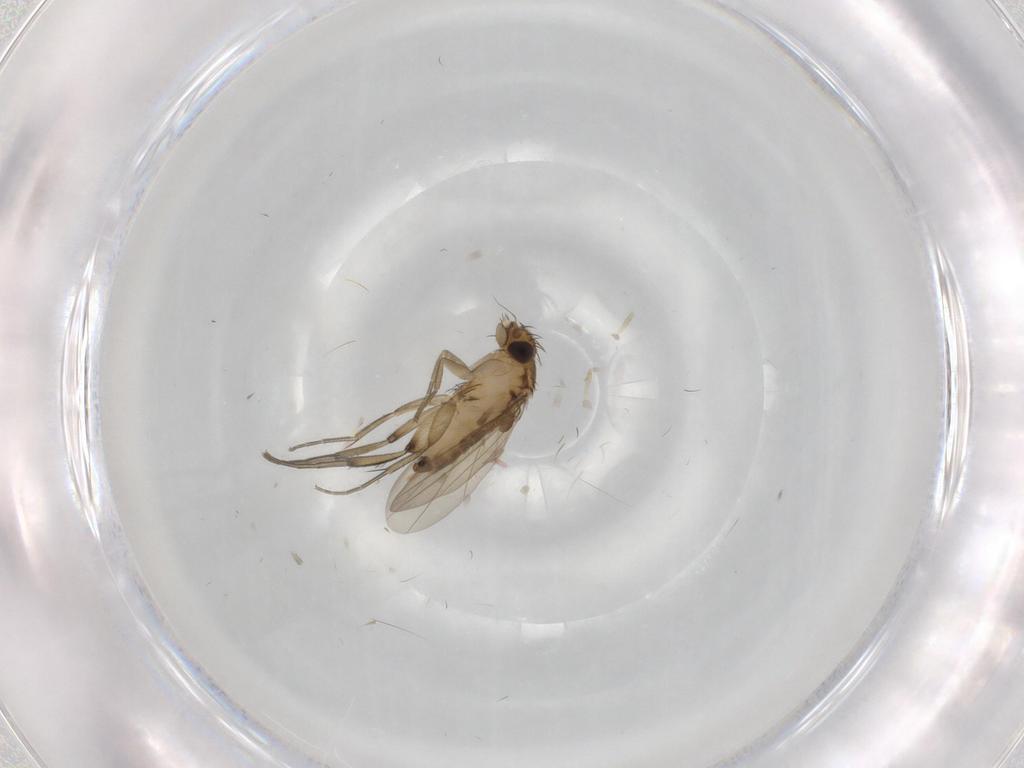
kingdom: Animalia
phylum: Arthropoda
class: Insecta
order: Diptera
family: Phoridae
